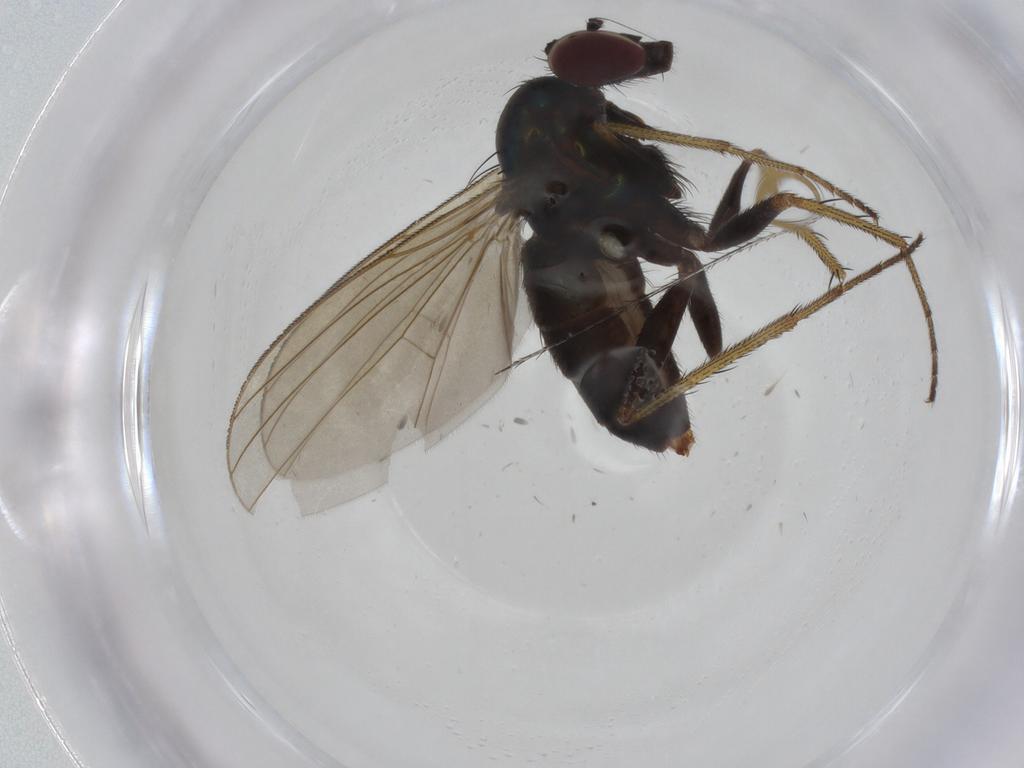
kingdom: Animalia
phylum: Arthropoda
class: Insecta
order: Diptera
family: Dolichopodidae
